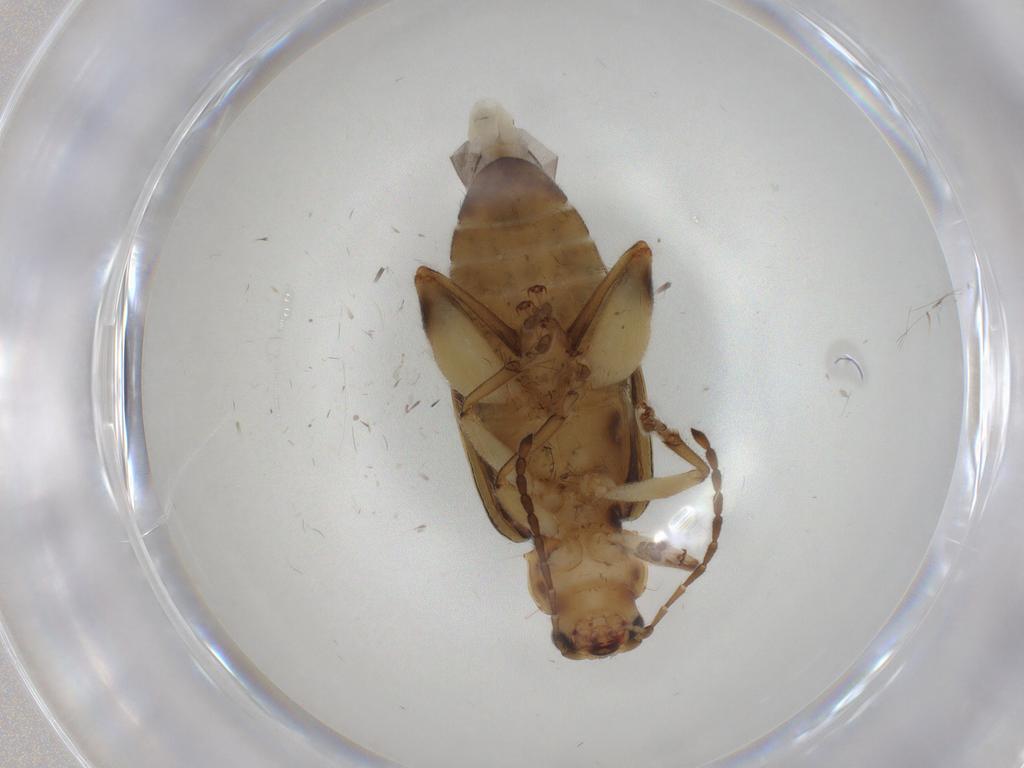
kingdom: Animalia
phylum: Arthropoda
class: Insecta
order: Coleoptera
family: Chrysomelidae
